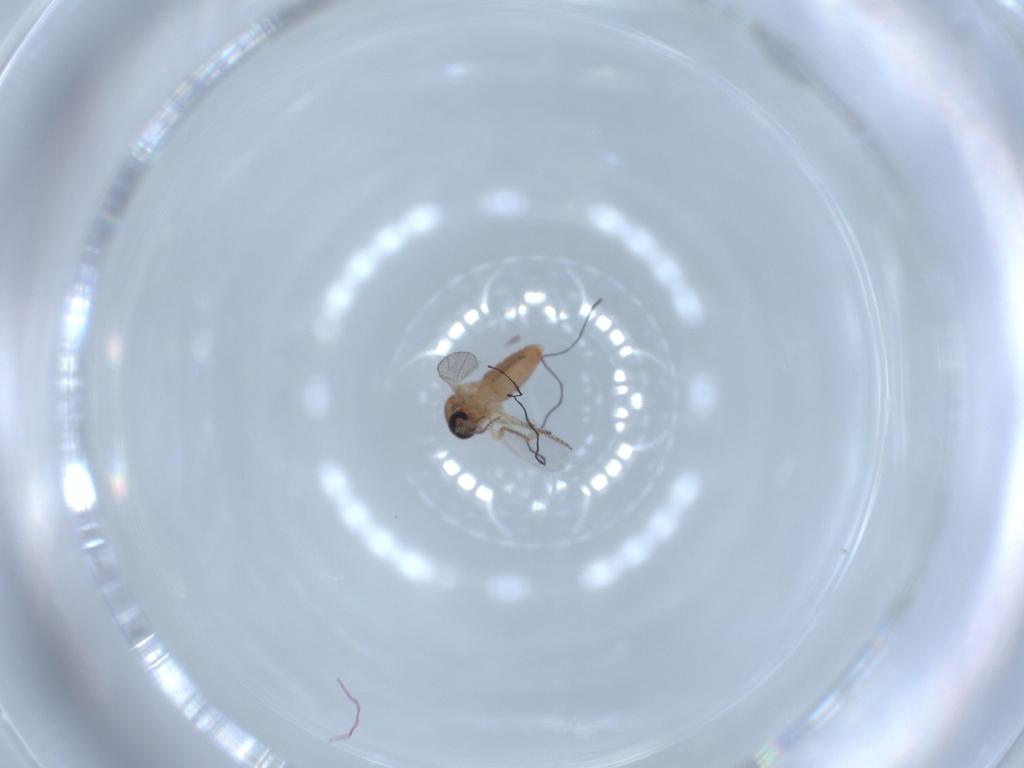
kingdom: Animalia
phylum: Arthropoda
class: Insecta
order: Diptera
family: Ceratopogonidae
